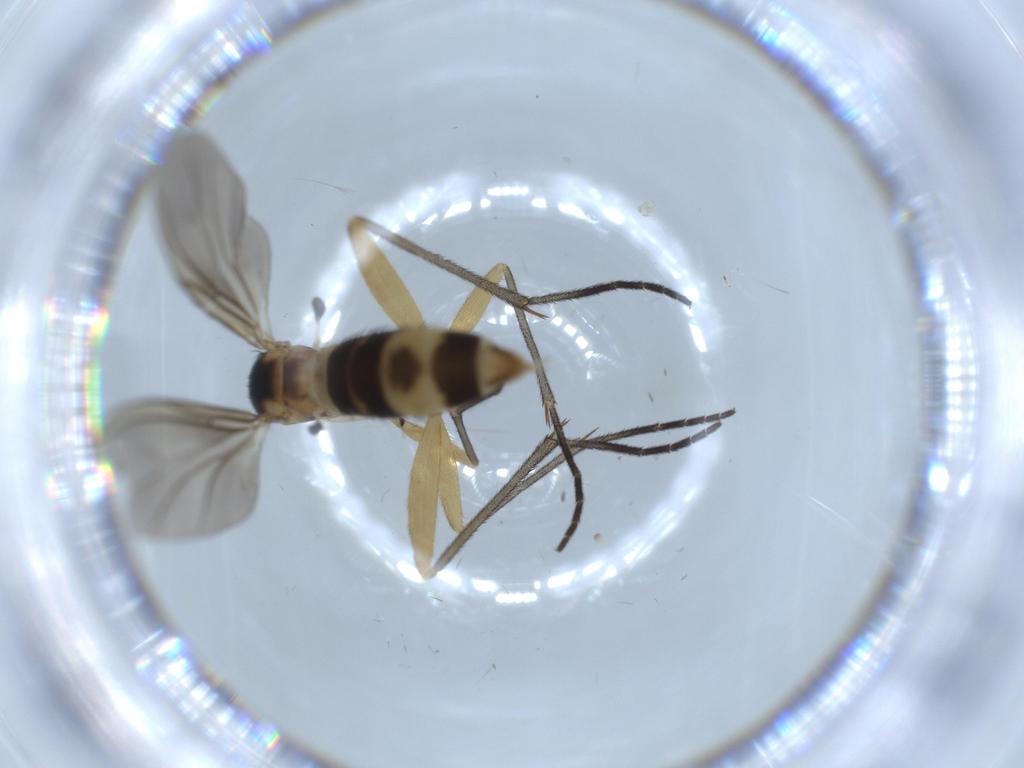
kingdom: Animalia
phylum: Arthropoda
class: Insecta
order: Diptera
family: Sciaridae
